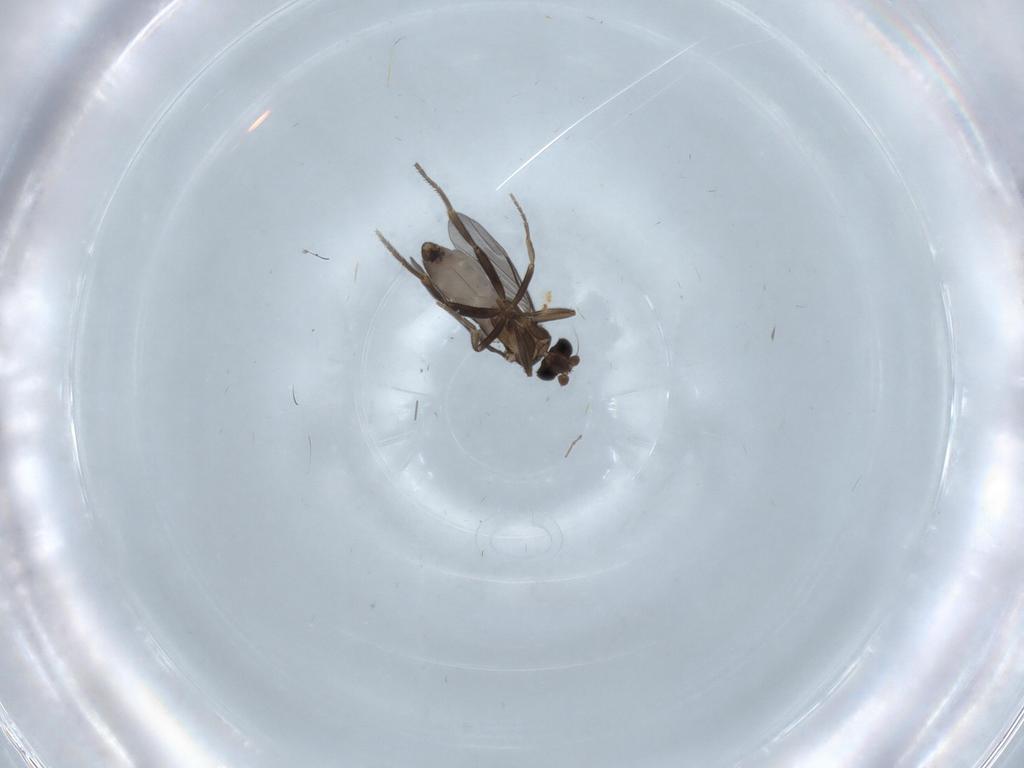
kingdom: Animalia
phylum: Arthropoda
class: Insecta
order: Diptera
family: Phoridae
